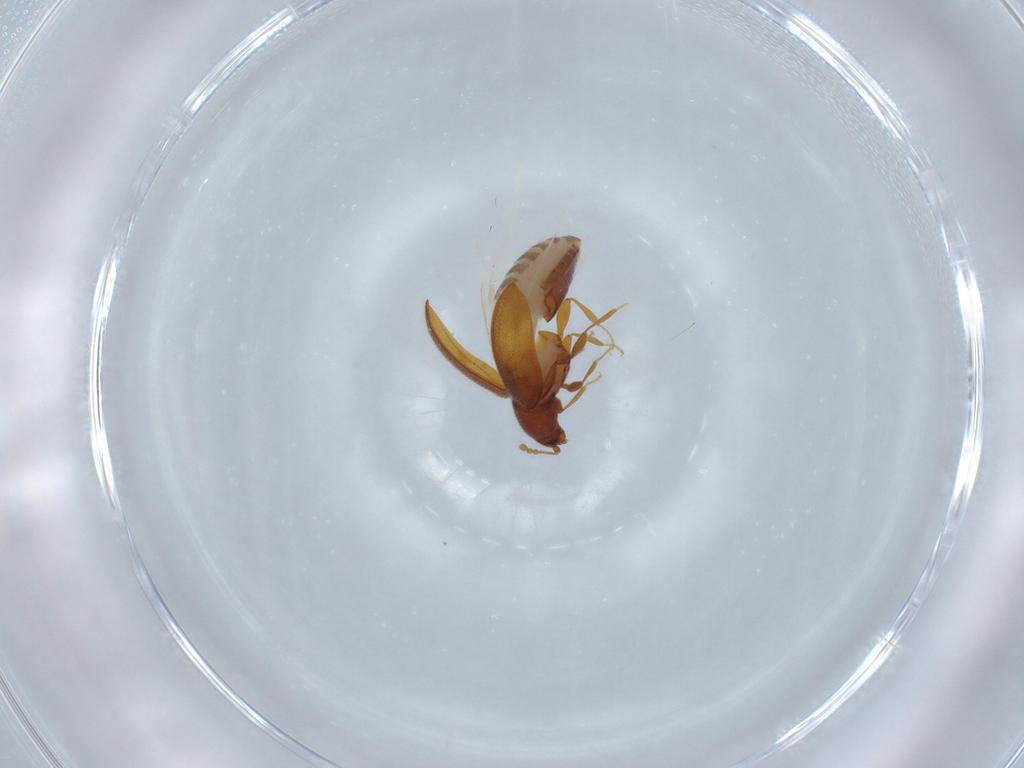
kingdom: Animalia
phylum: Arthropoda
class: Insecta
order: Coleoptera
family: Latridiidae
